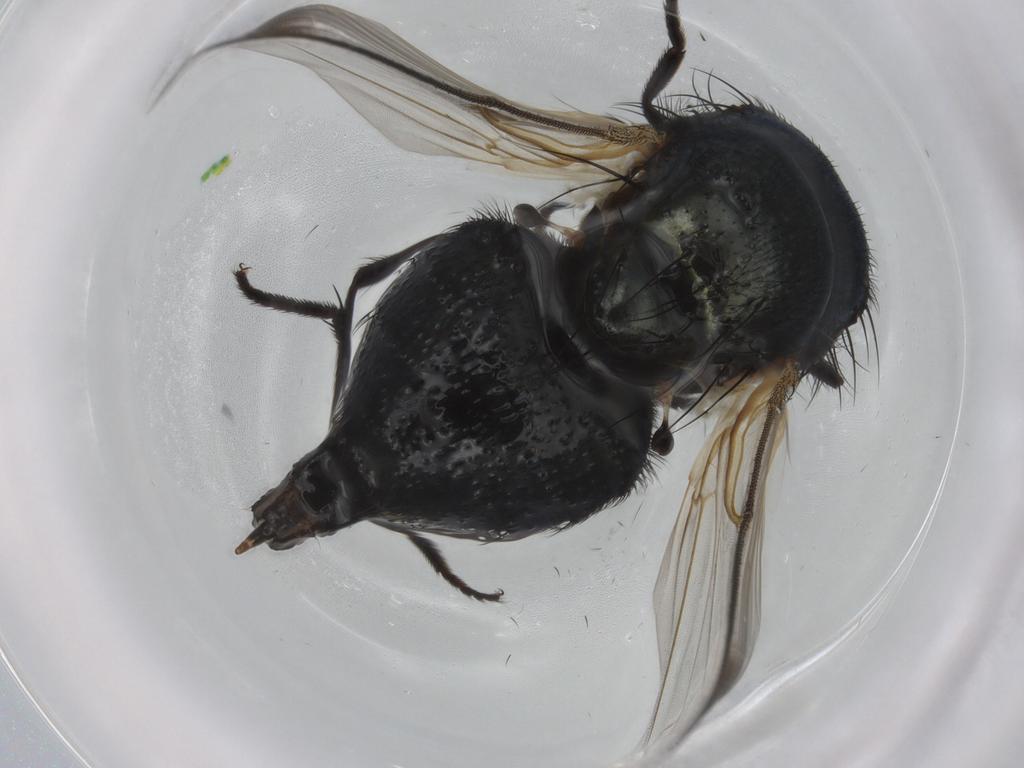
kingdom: Animalia
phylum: Arthropoda
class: Insecta
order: Diptera
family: Lonchaeidae
